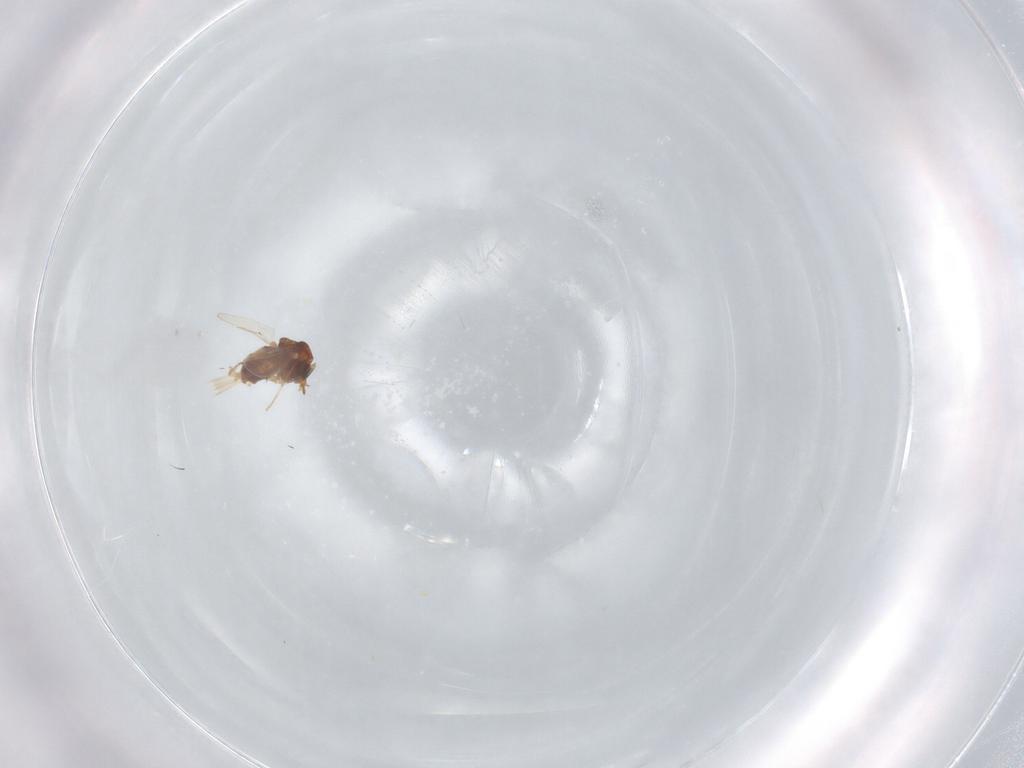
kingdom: Animalia
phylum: Arthropoda
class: Insecta
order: Diptera
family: Ceratopogonidae
